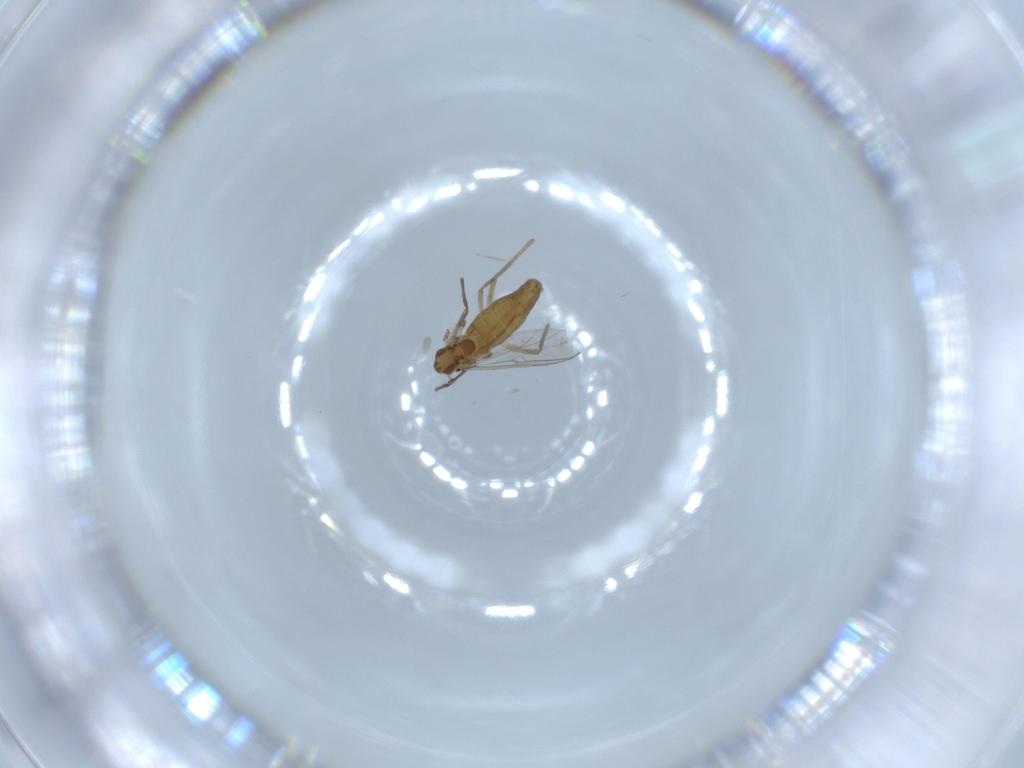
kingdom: Animalia
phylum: Arthropoda
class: Insecta
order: Diptera
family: Chironomidae
